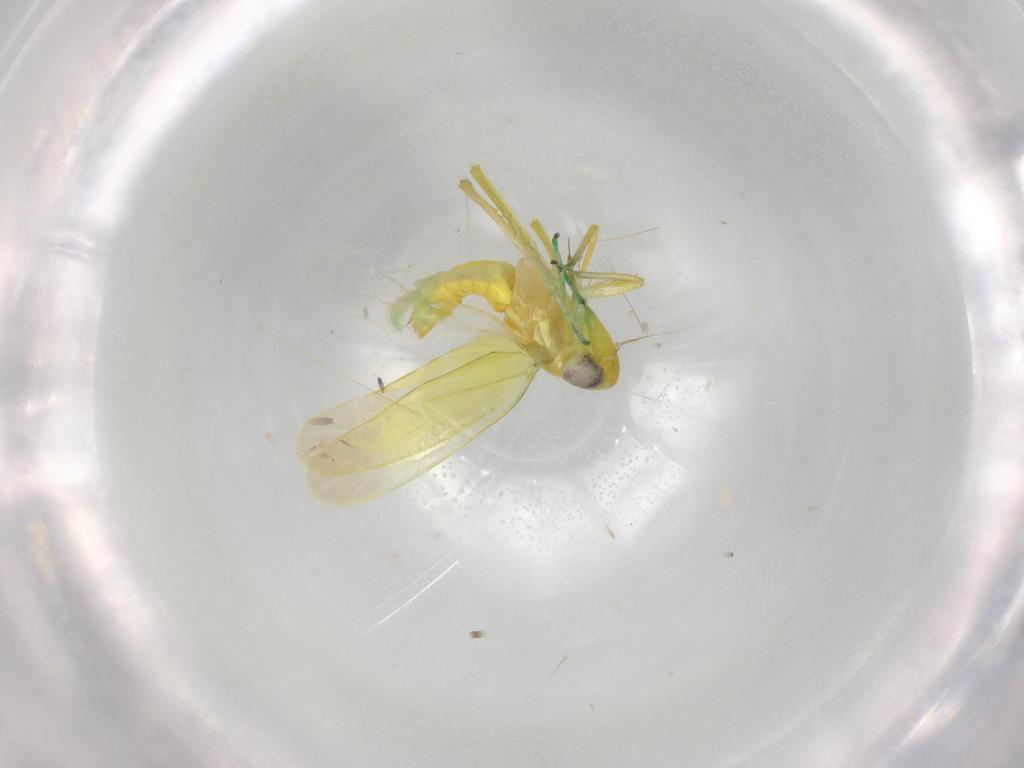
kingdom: Animalia
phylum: Arthropoda
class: Insecta
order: Hemiptera
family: Cicadellidae
